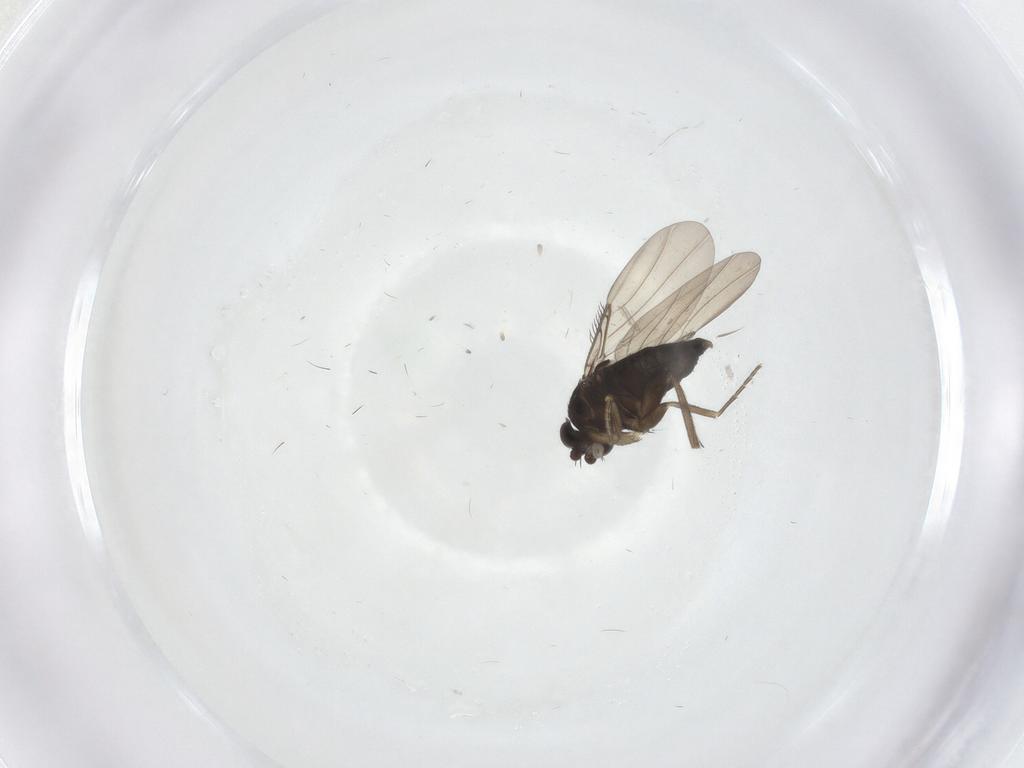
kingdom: Animalia
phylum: Arthropoda
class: Insecta
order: Diptera
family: Phoridae
